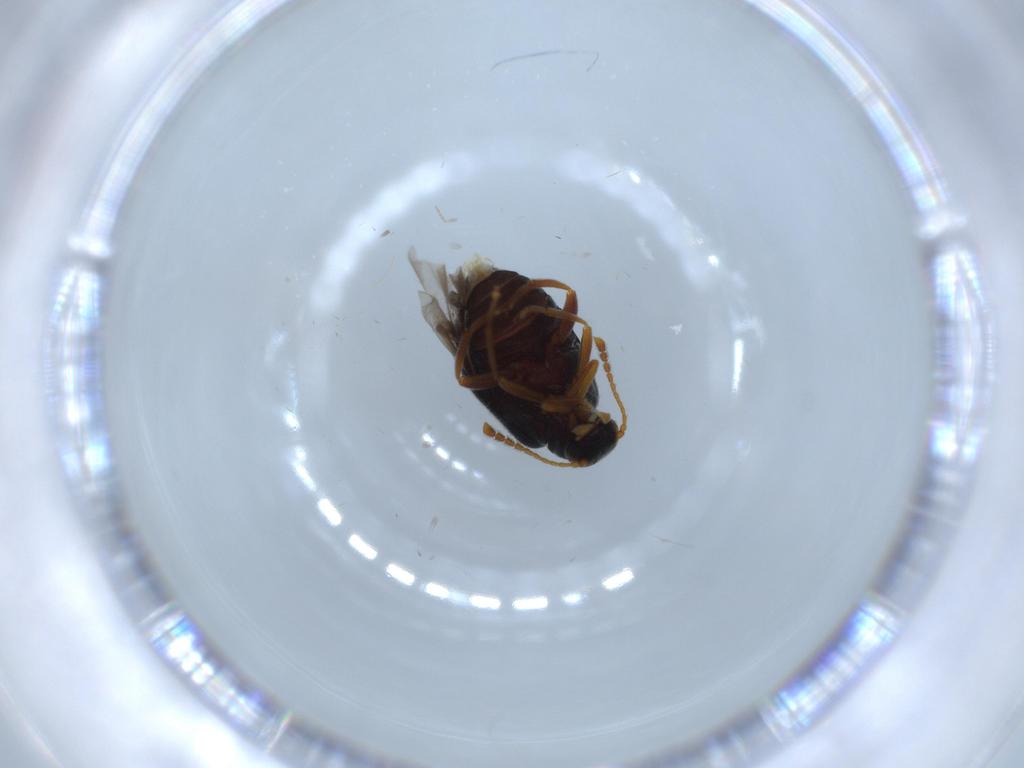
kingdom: Animalia
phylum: Arthropoda
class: Insecta
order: Coleoptera
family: Aderidae
